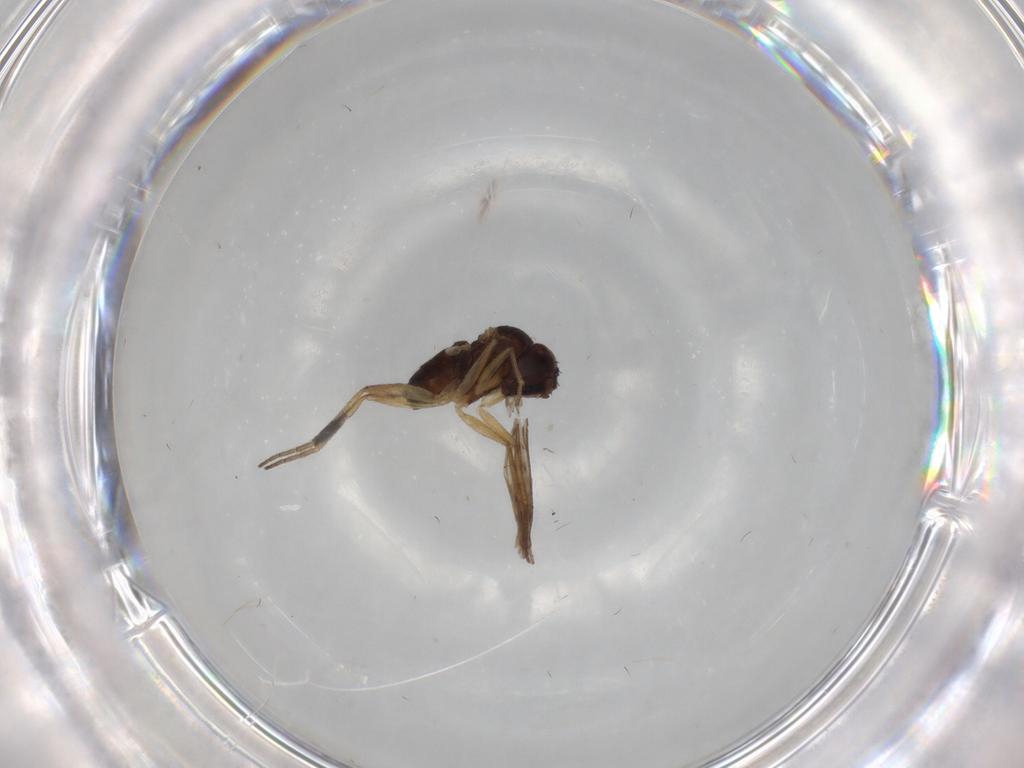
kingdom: Animalia
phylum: Arthropoda
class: Insecta
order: Diptera
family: Dolichopodidae
